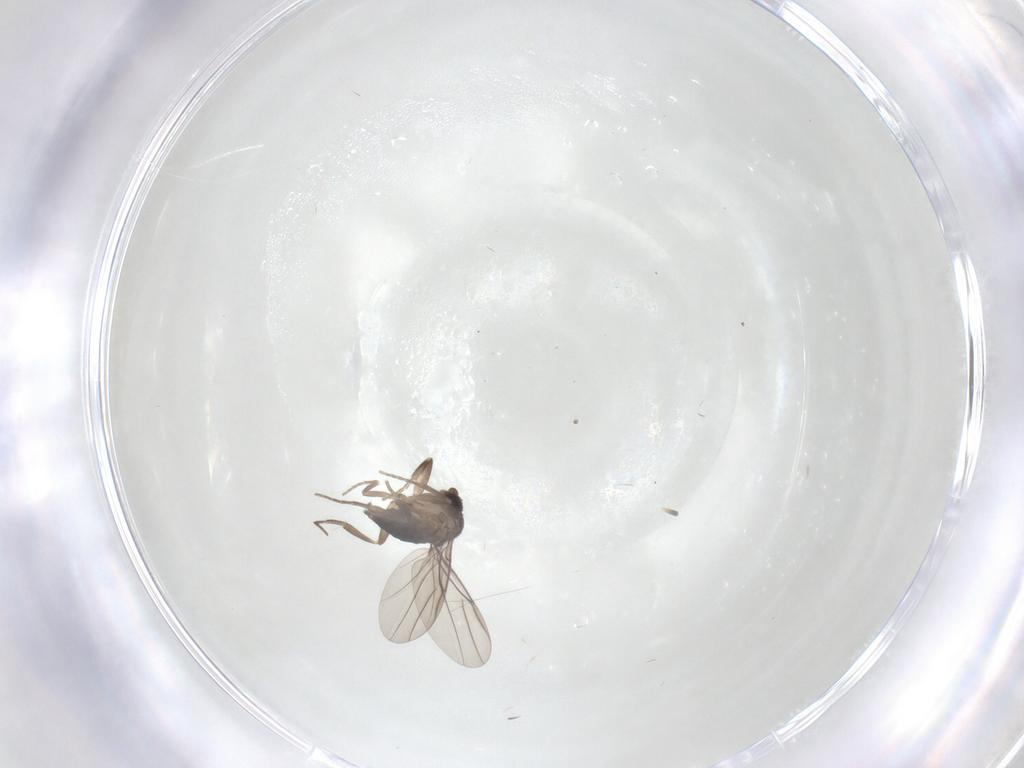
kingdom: Animalia
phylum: Arthropoda
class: Insecta
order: Diptera
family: Phoridae
